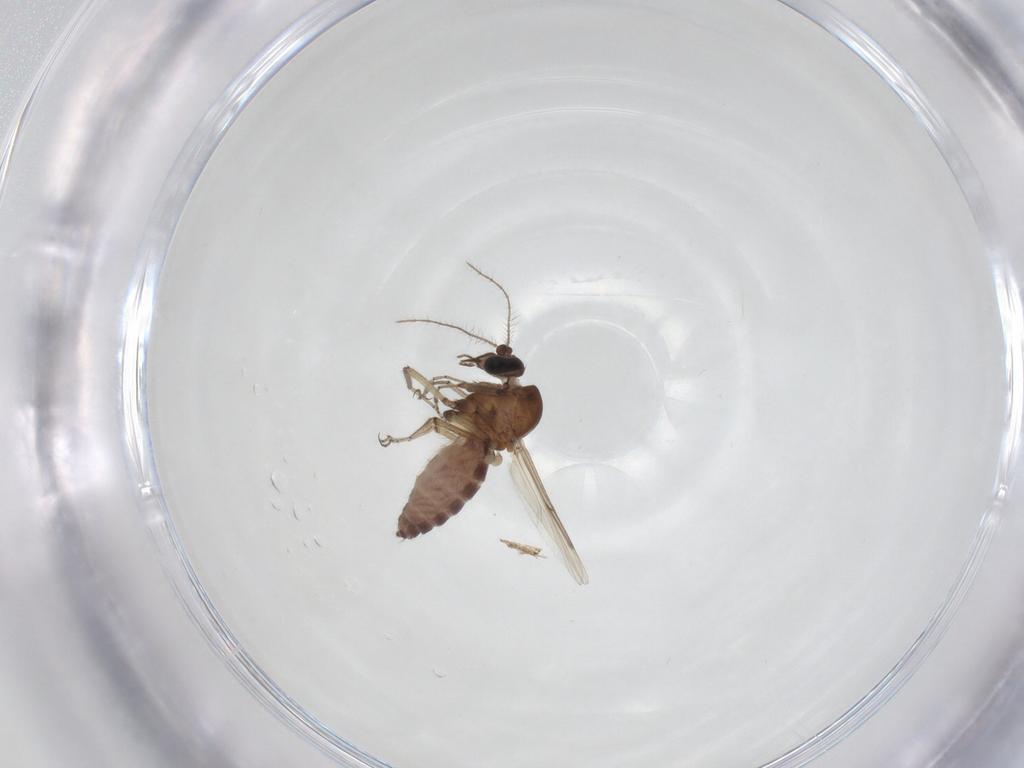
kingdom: Animalia
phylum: Arthropoda
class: Insecta
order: Diptera
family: Ceratopogonidae
